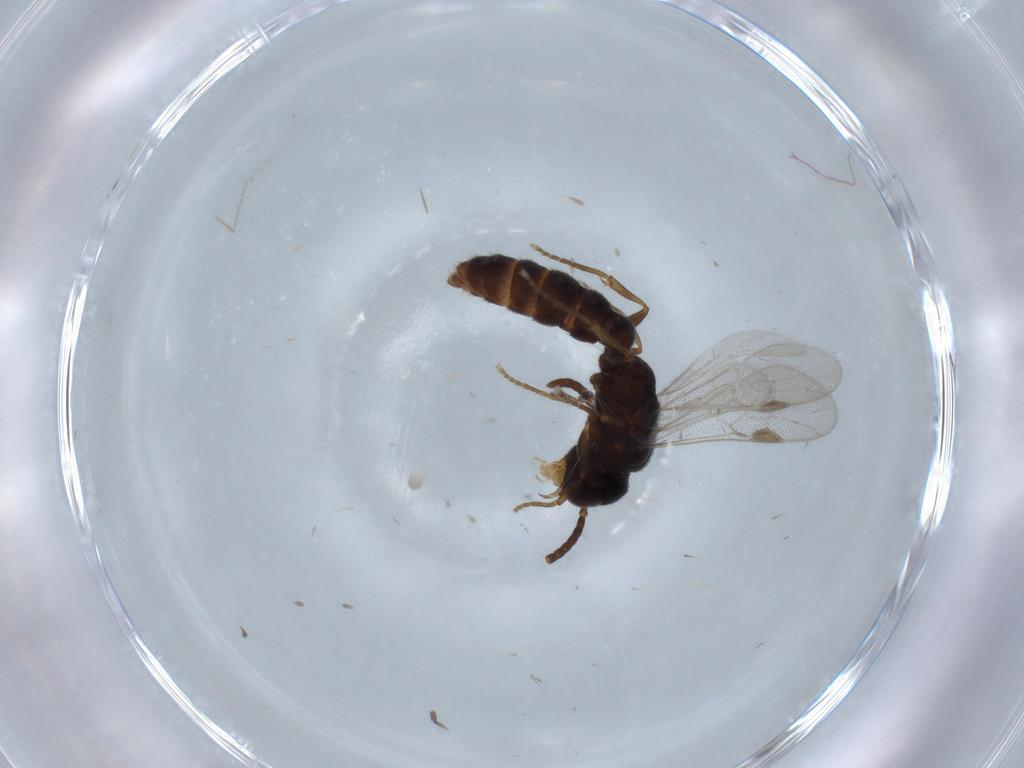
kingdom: Animalia
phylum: Arthropoda
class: Insecta
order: Hymenoptera
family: Formicidae
